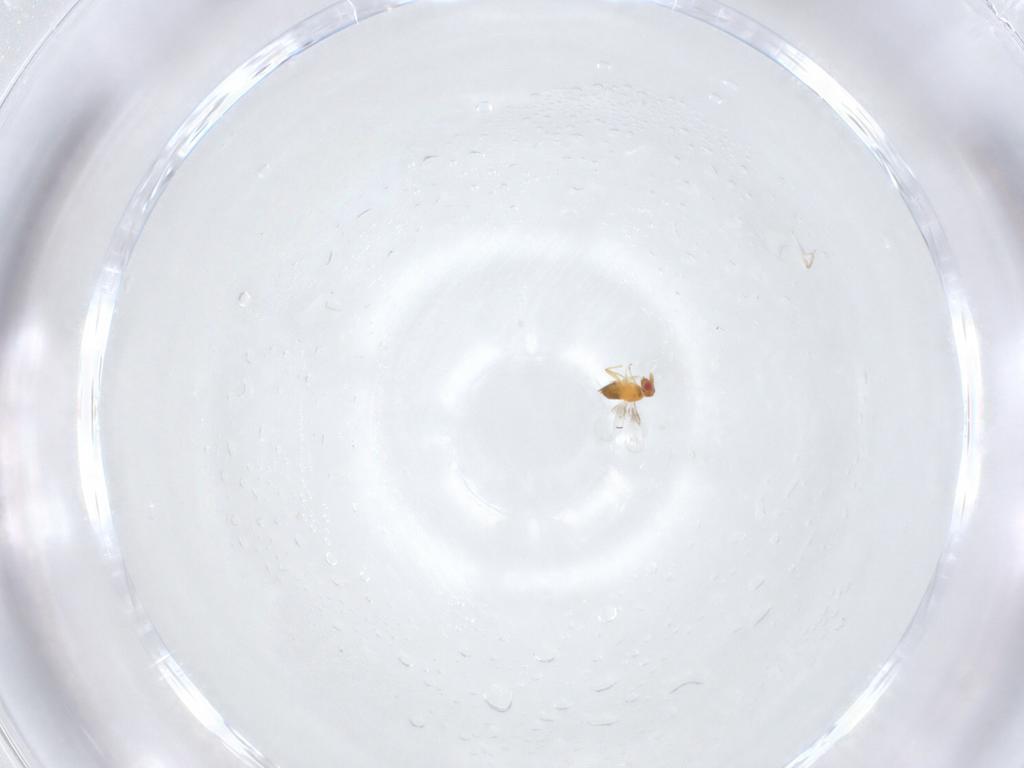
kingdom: Animalia
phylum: Arthropoda
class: Insecta
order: Hymenoptera
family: Trichogrammatidae
